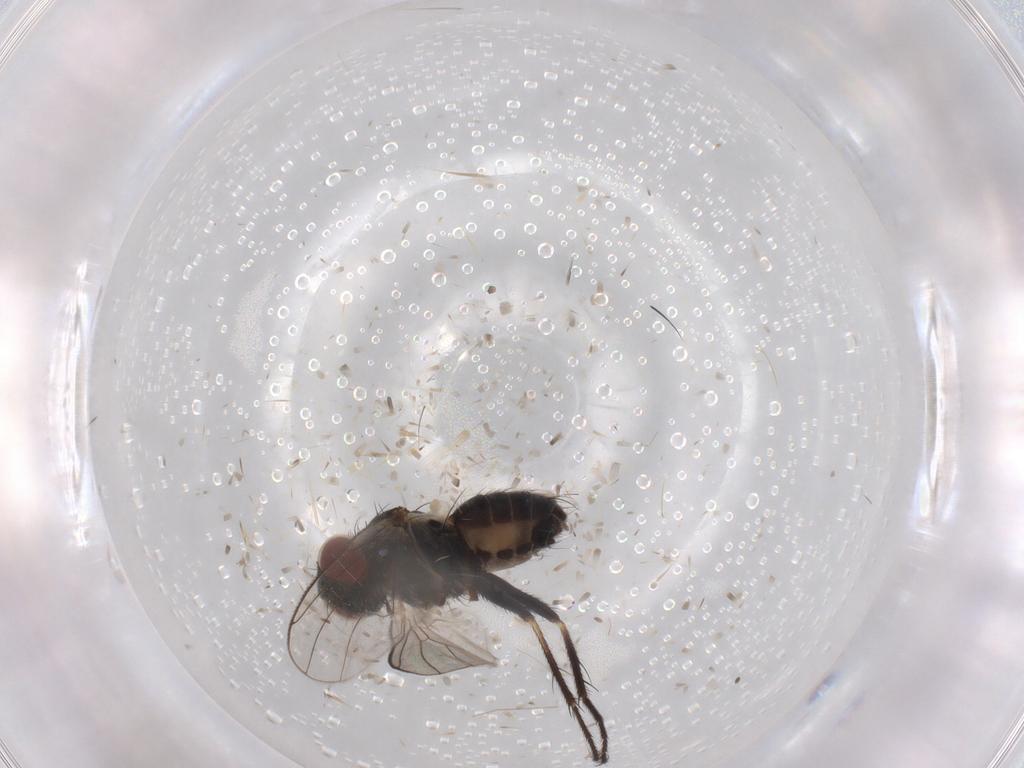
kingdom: Animalia
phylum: Arthropoda
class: Insecta
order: Diptera
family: Muscidae
